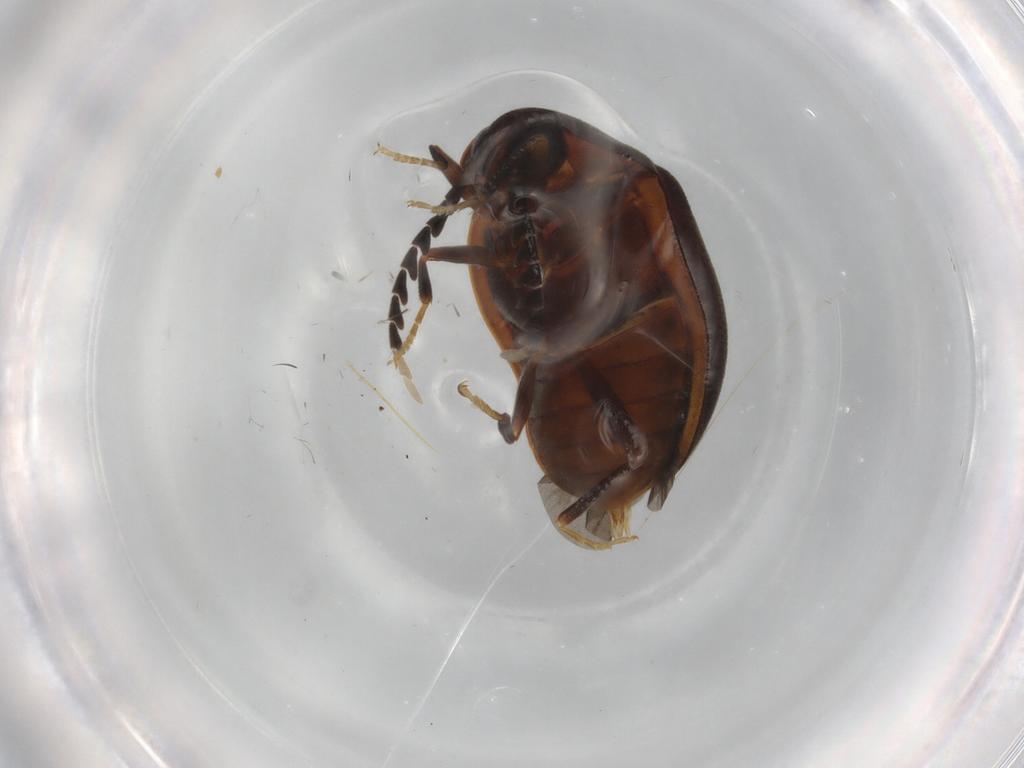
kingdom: Animalia
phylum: Arthropoda
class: Insecta
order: Coleoptera
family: Psephenidae
